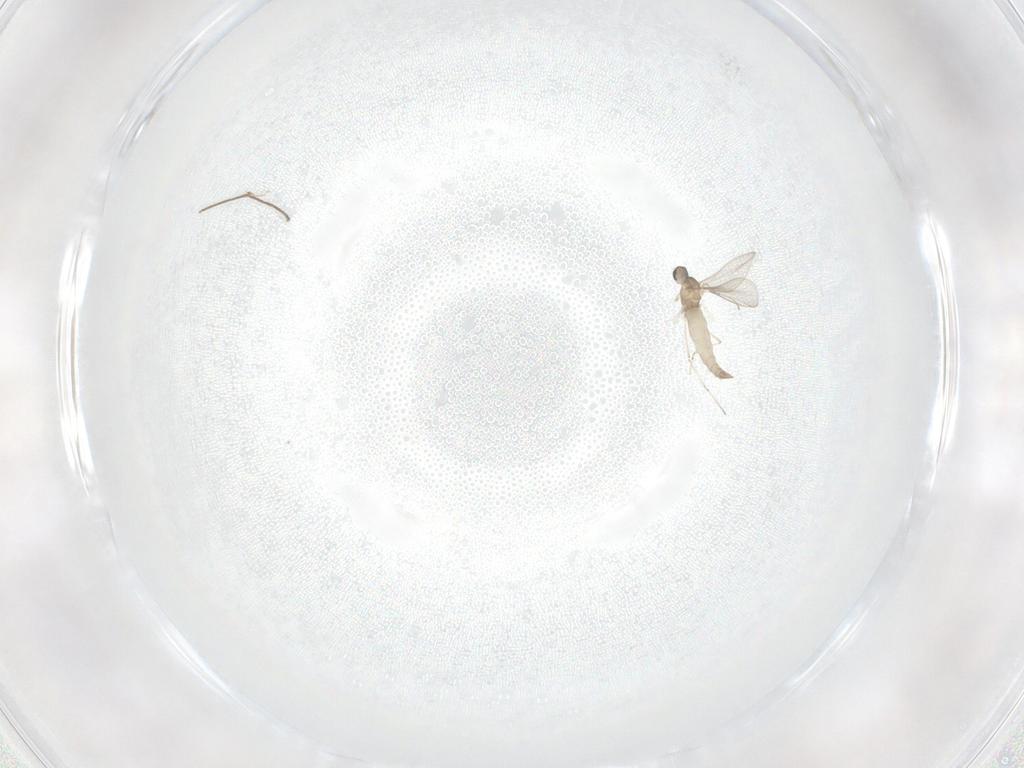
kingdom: Animalia
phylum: Arthropoda
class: Insecta
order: Diptera
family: Chironomidae
